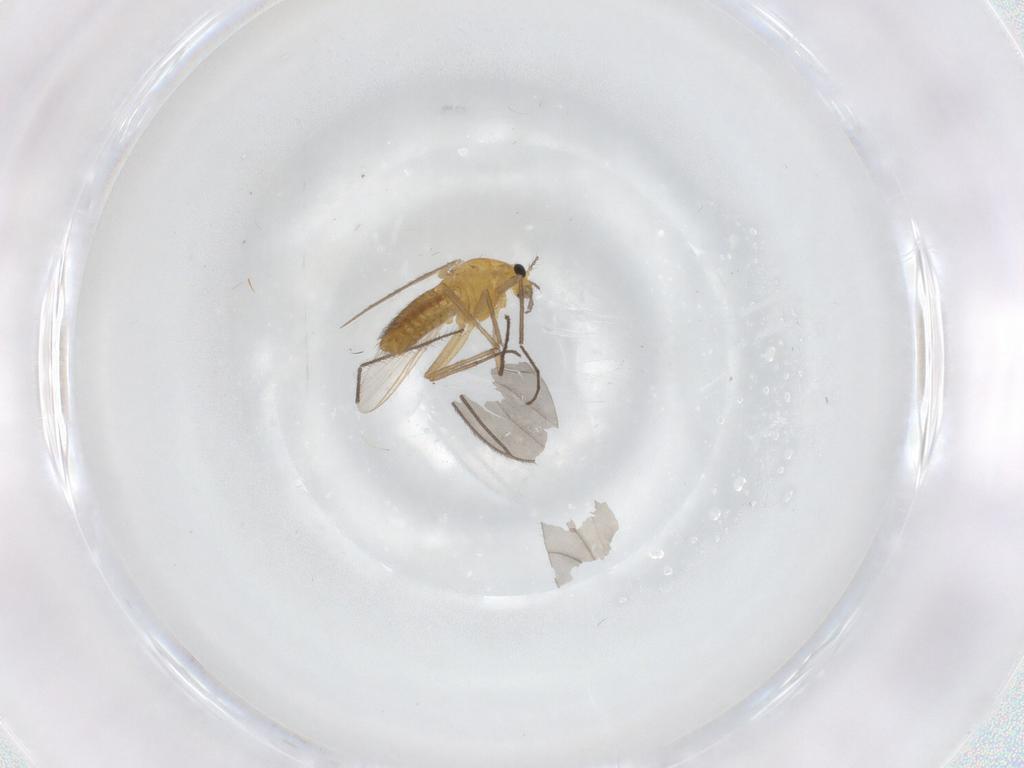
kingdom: Animalia
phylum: Arthropoda
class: Insecta
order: Diptera
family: Chironomidae
